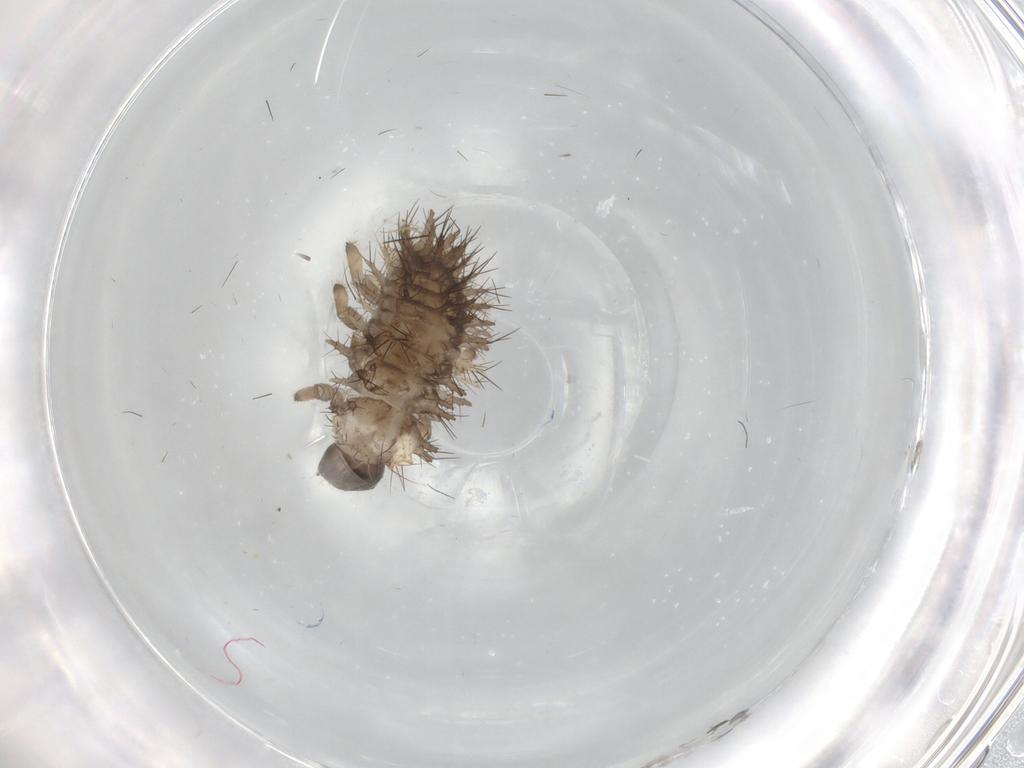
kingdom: Animalia
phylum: Arthropoda
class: Insecta
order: Coleoptera
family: Coccinellidae
